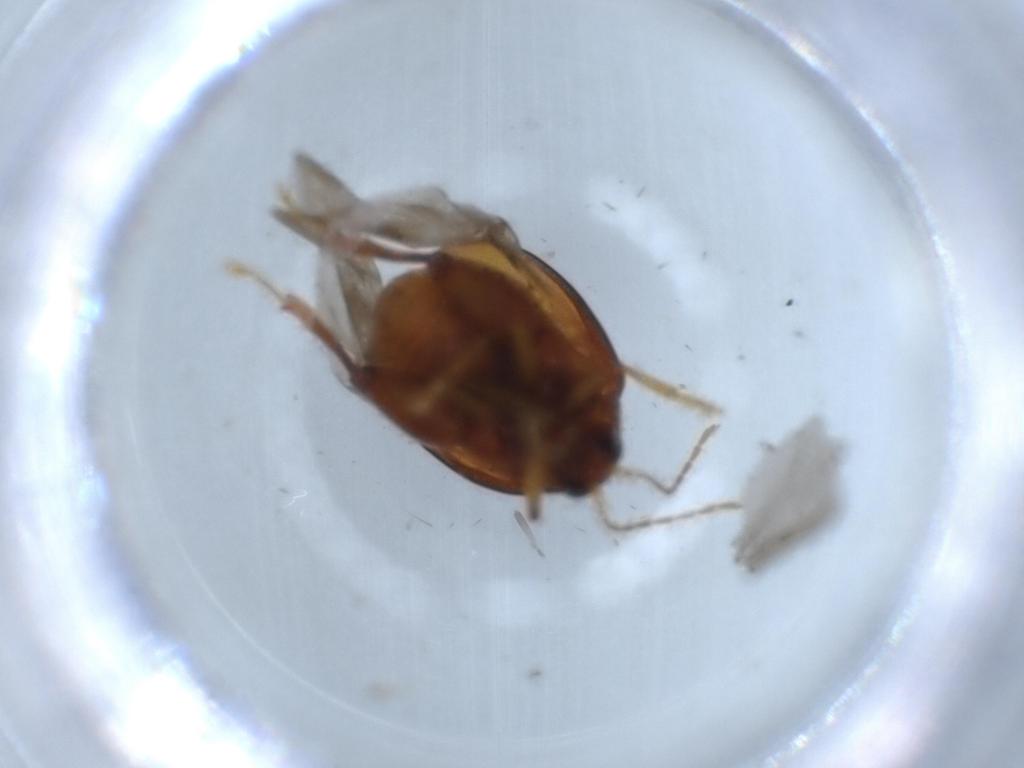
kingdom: Animalia
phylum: Arthropoda
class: Insecta
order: Coleoptera
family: Chrysomelidae
